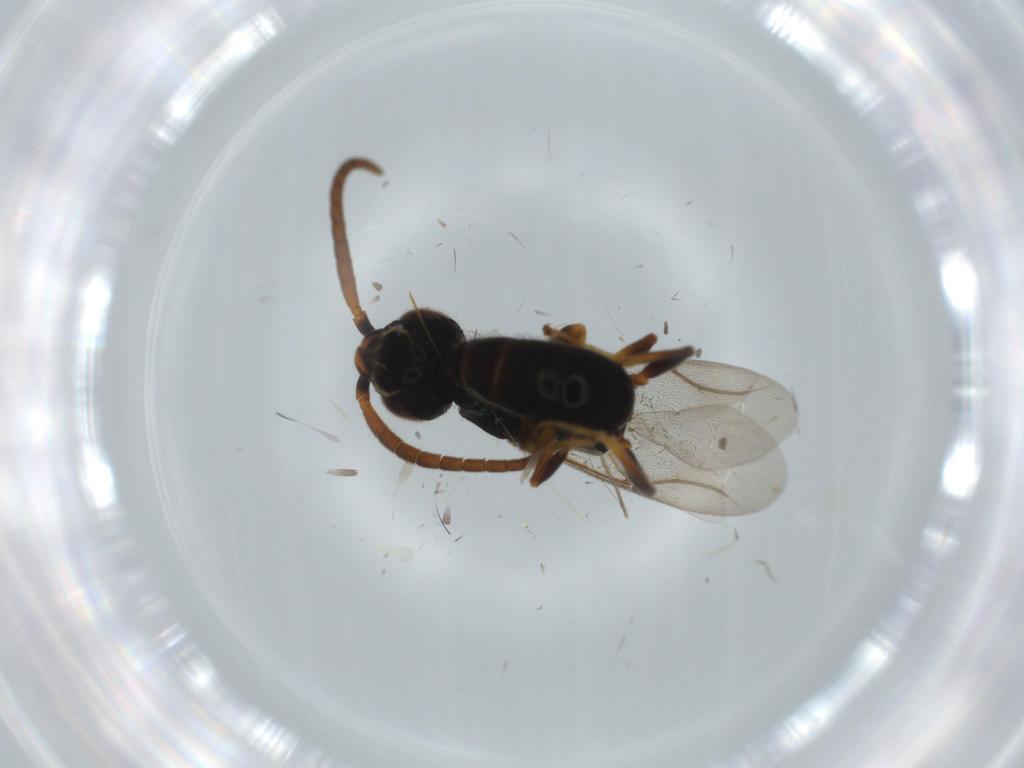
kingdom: Animalia
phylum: Arthropoda
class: Insecta
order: Hymenoptera
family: Bethylidae
